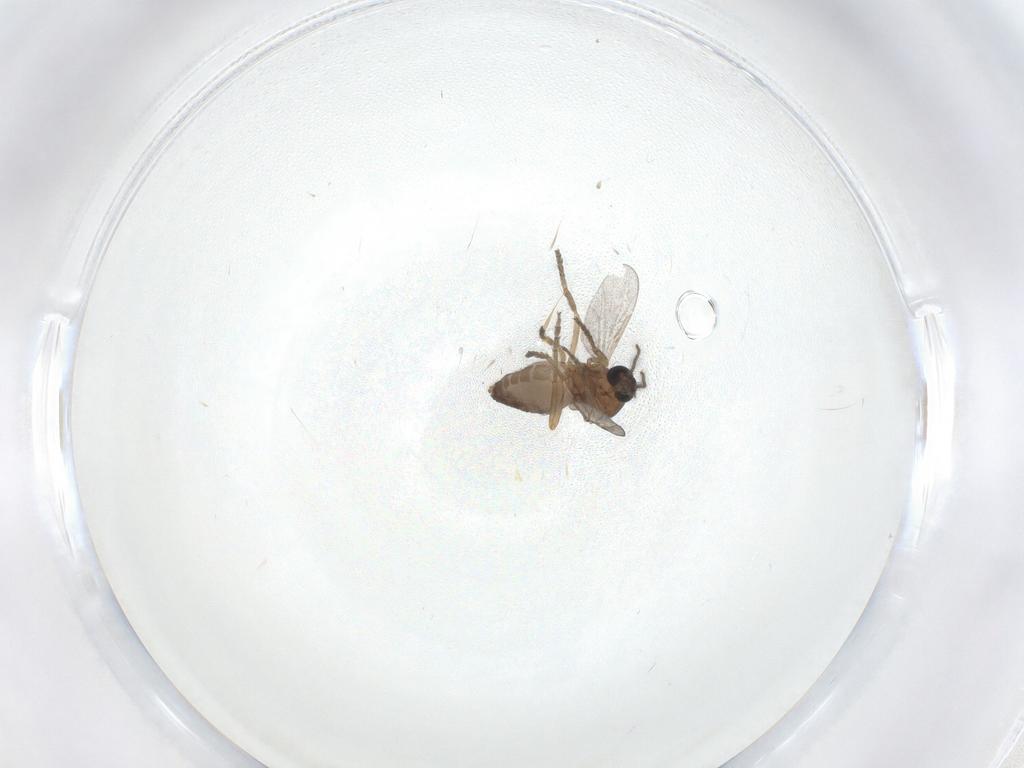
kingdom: Animalia
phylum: Arthropoda
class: Insecta
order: Diptera
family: Ceratopogonidae
